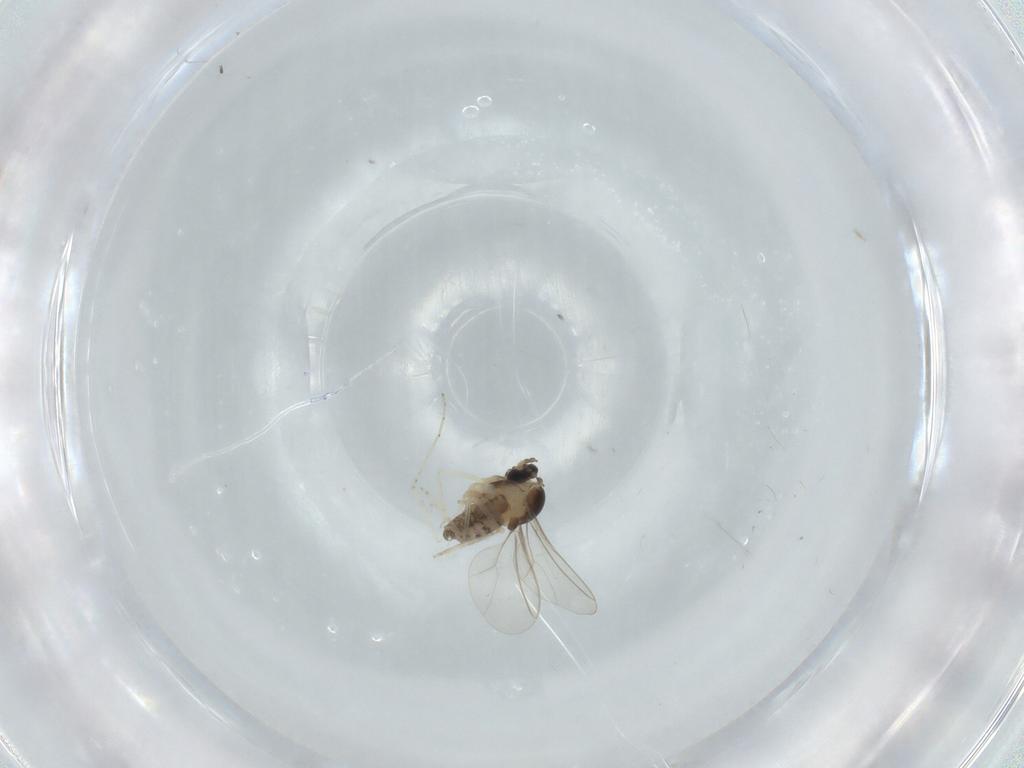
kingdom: Animalia
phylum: Arthropoda
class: Insecta
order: Diptera
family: Cecidomyiidae
